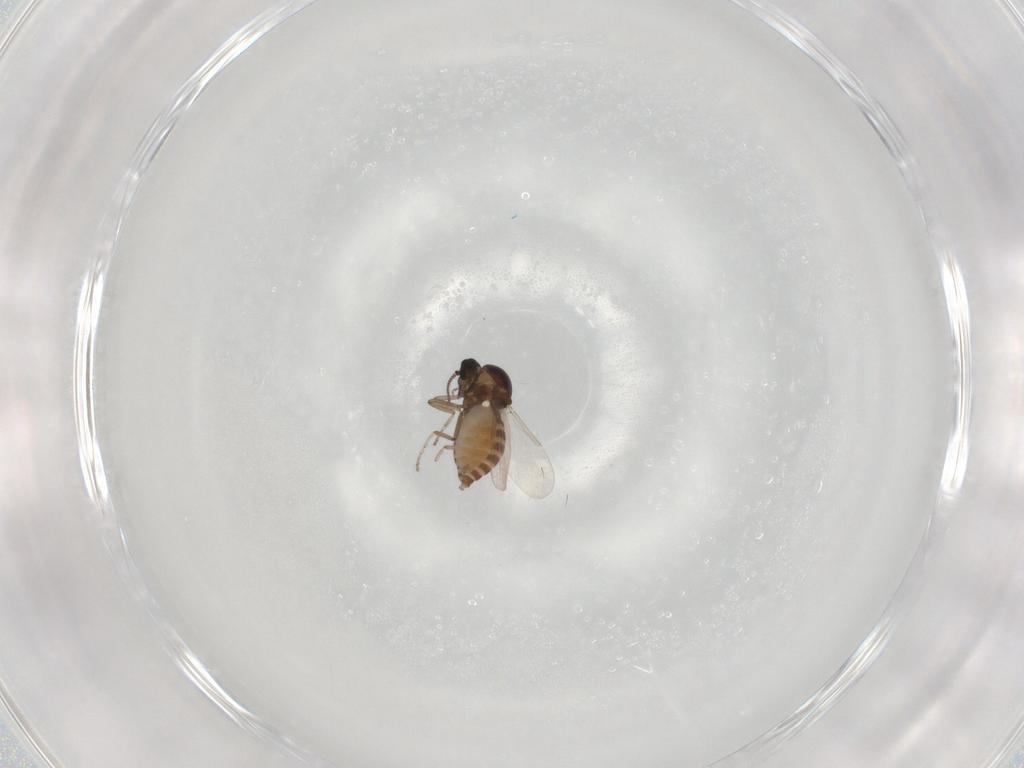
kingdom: Animalia
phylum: Arthropoda
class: Insecta
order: Diptera
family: Ceratopogonidae
